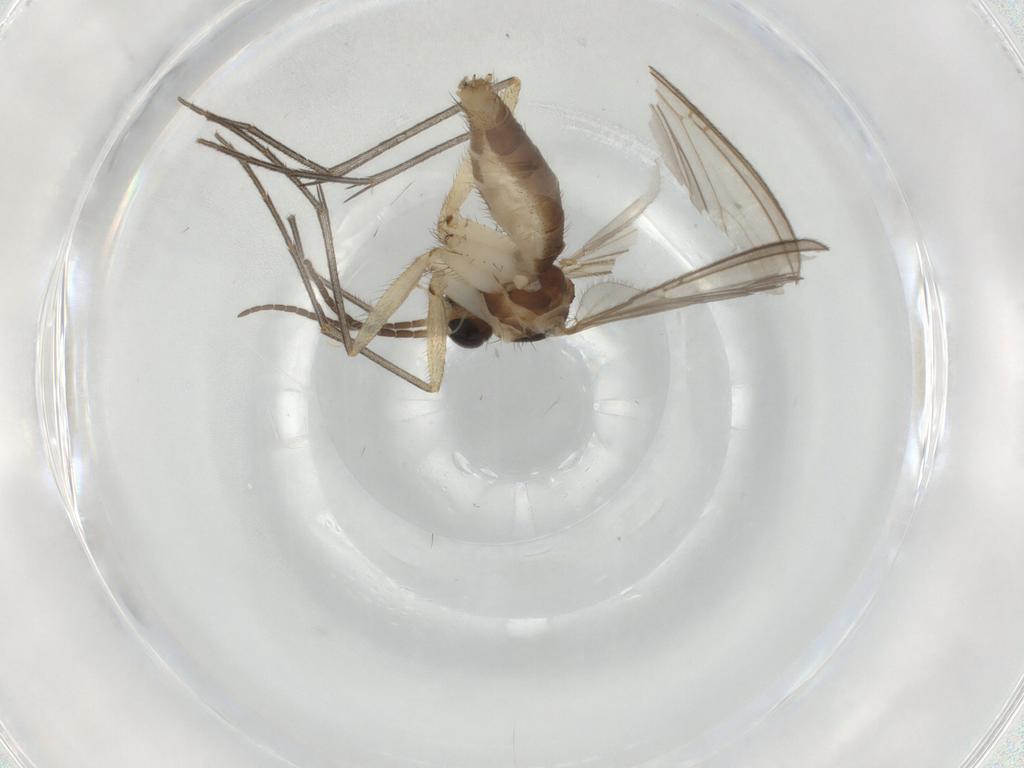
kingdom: Animalia
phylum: Arthropoda
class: Insecta
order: Diptera
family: Mycetophilidae
